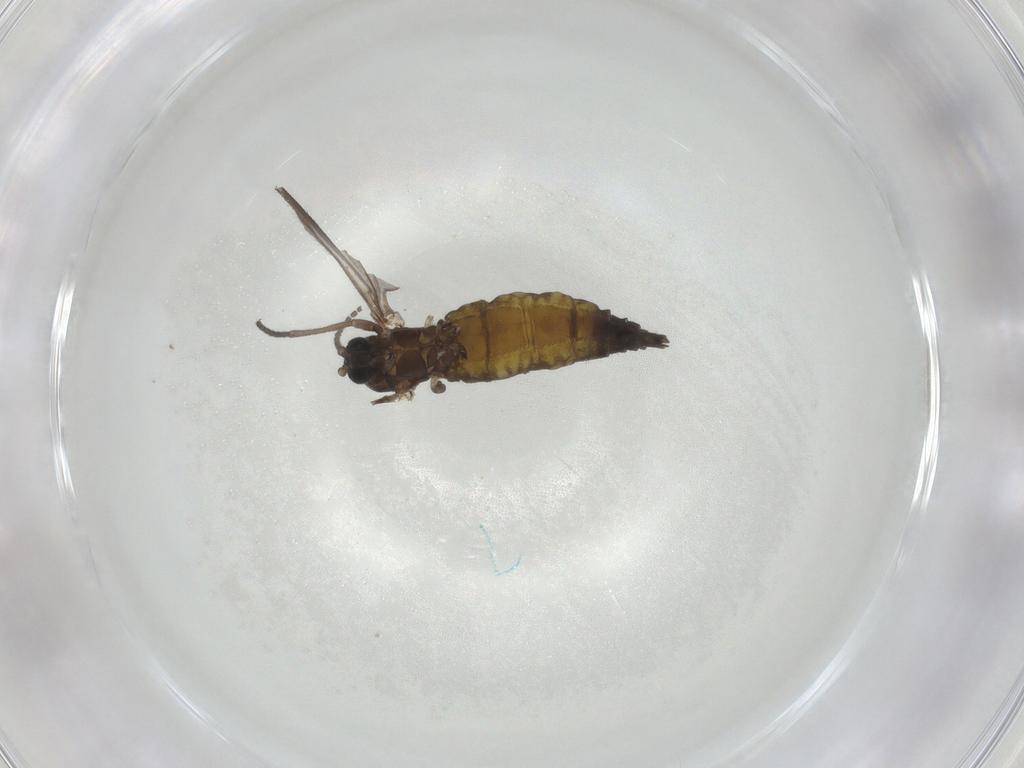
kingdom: Animalia
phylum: Arthropoda
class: Insecta
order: Diptera
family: Sciaridae
